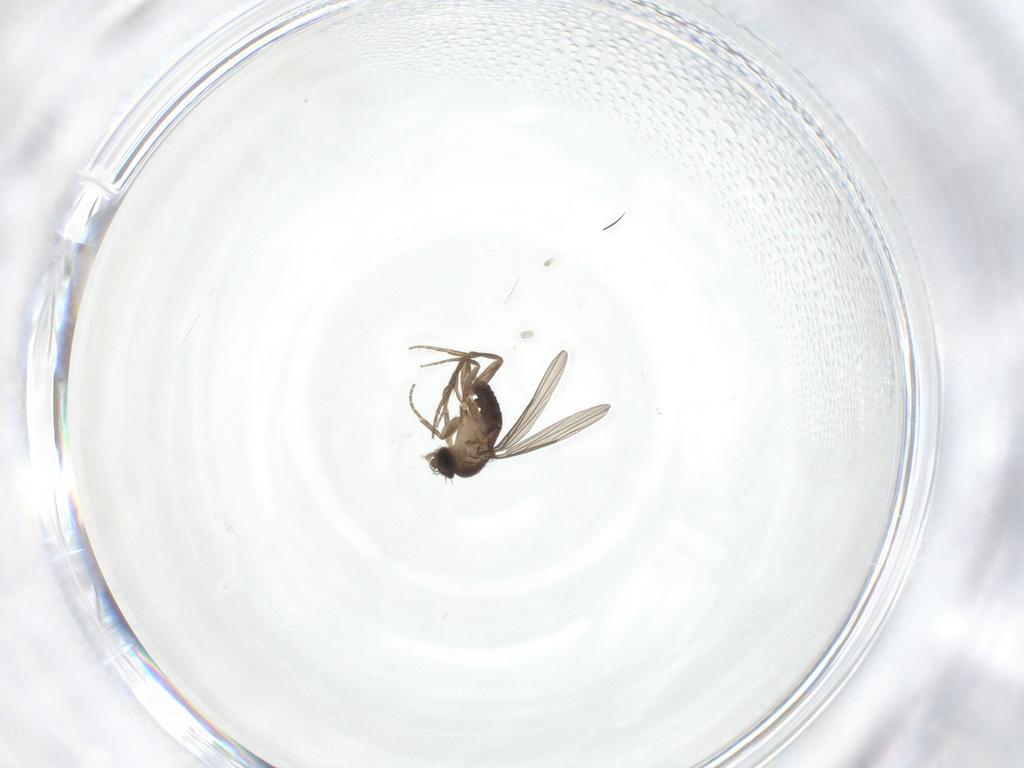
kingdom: Animalia
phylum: Arthropoda
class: Insecta
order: Diptera
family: Phoridae
